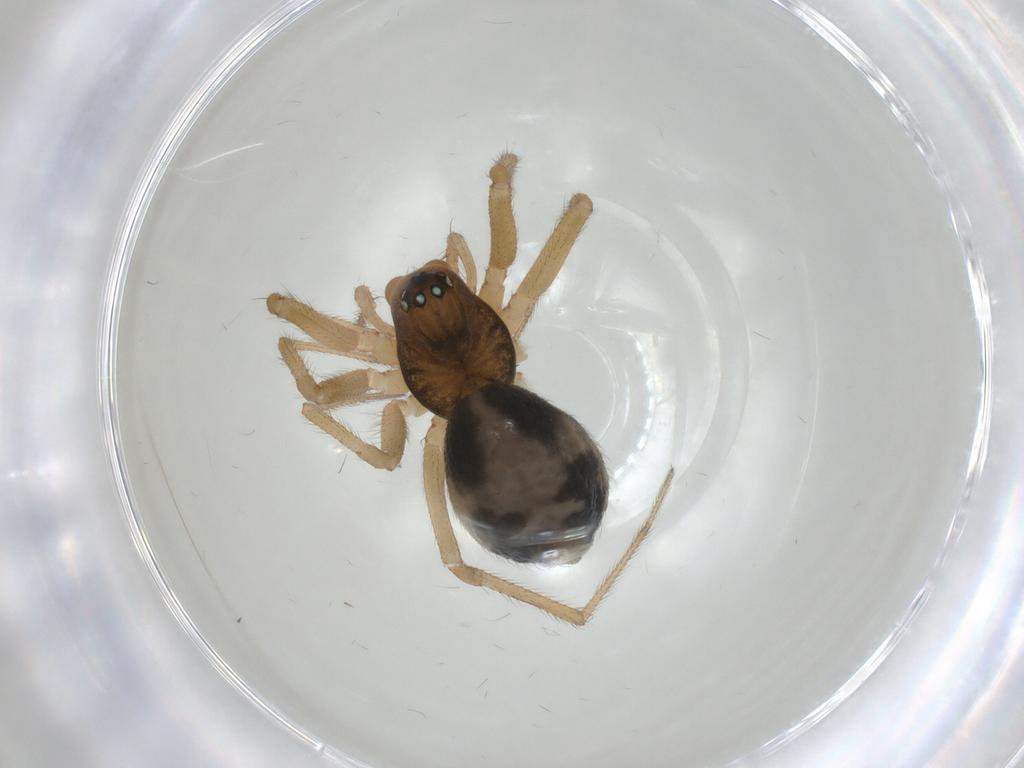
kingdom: Animalia
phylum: Arthropoda
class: Arachnida
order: Araneae
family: Linyphiidae
